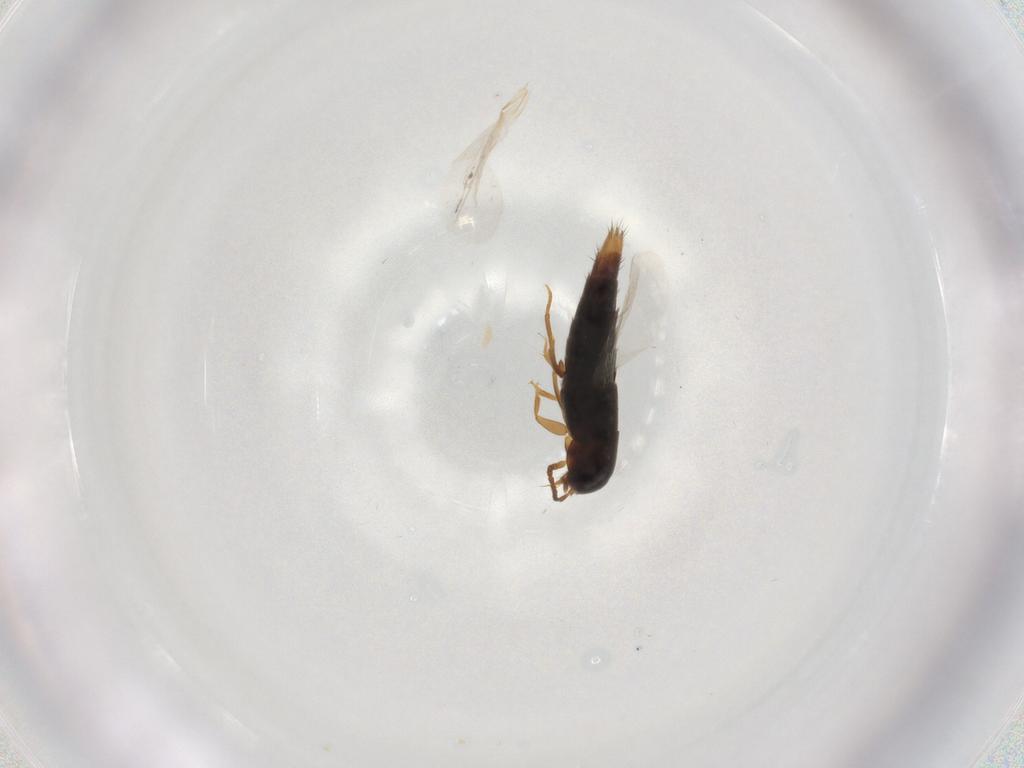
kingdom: Animalia
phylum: Arthropoda
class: Insecta
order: Coleoptera
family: Staphylinidae
